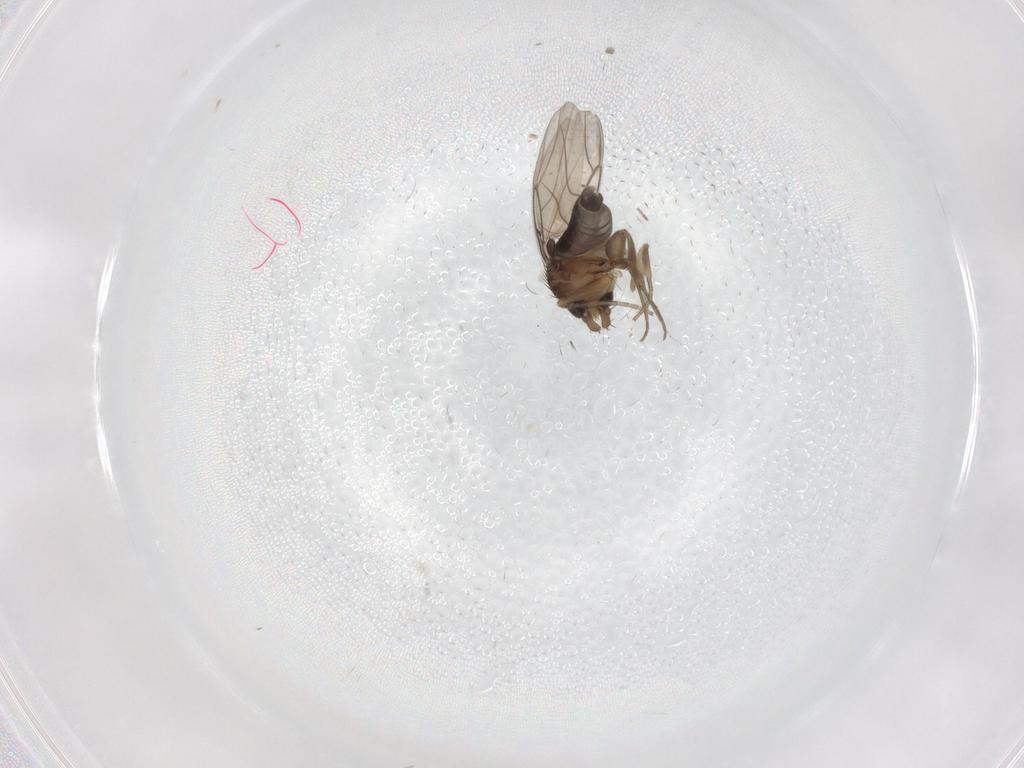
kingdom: Animalia
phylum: Arthropoda
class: Insecta
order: Diptera
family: Phoridae
